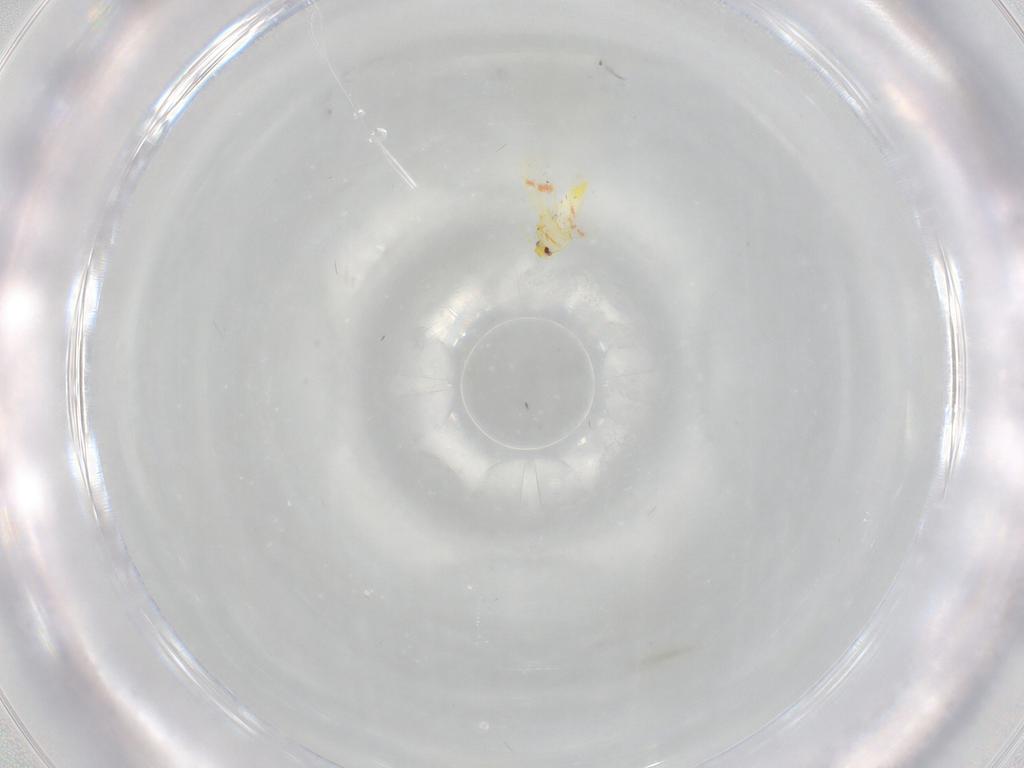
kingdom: Animalia
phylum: Arthropoda
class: Insecta
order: Hemiptera
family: Aleyrodidae
